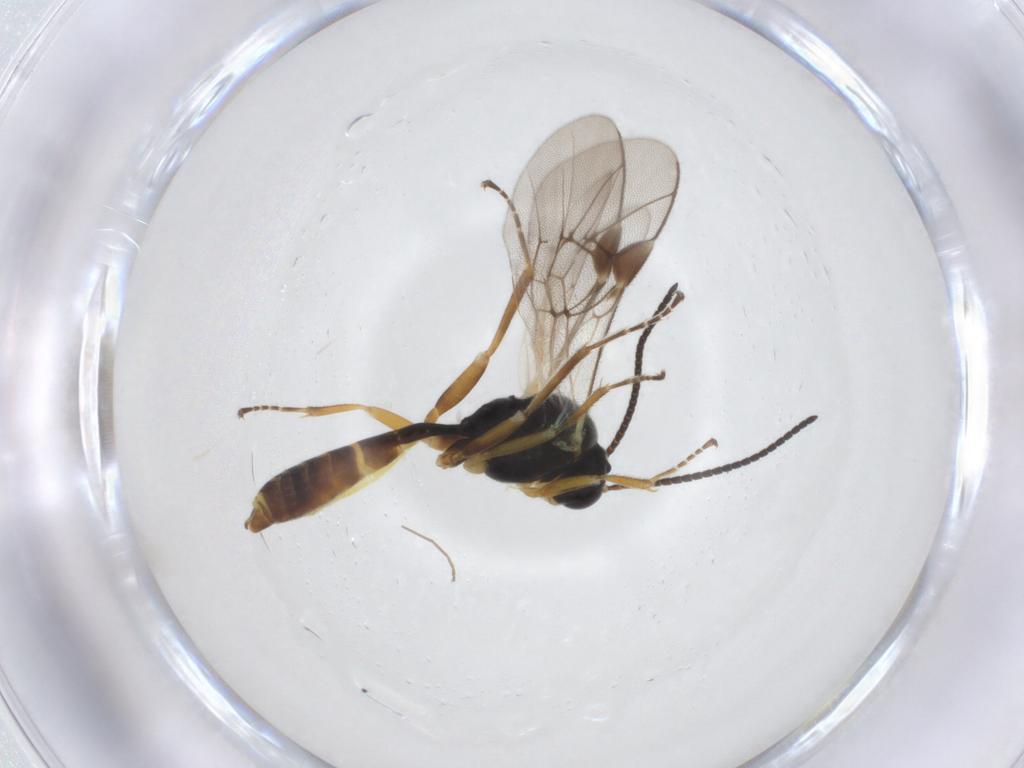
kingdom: Animalia
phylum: Arthropoda
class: Insecta
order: Hymenoptera
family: Ichneumonidae
